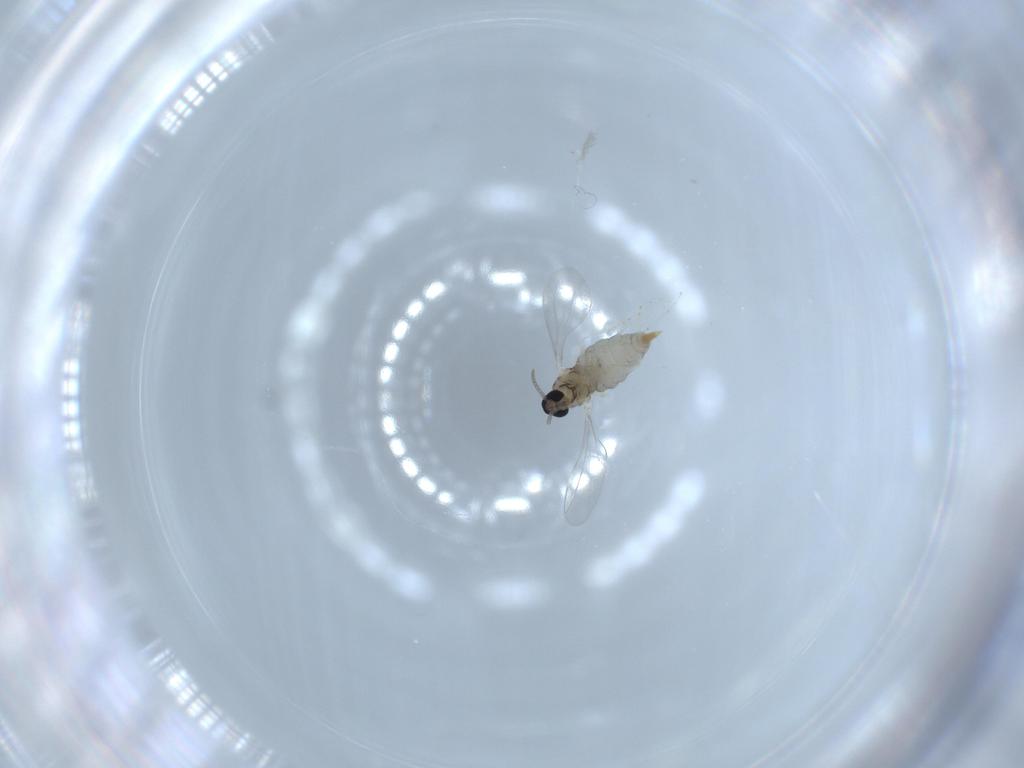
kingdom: Animalia
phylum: Arthropoda
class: Insecta
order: Diptera
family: Cecidomyiidae
